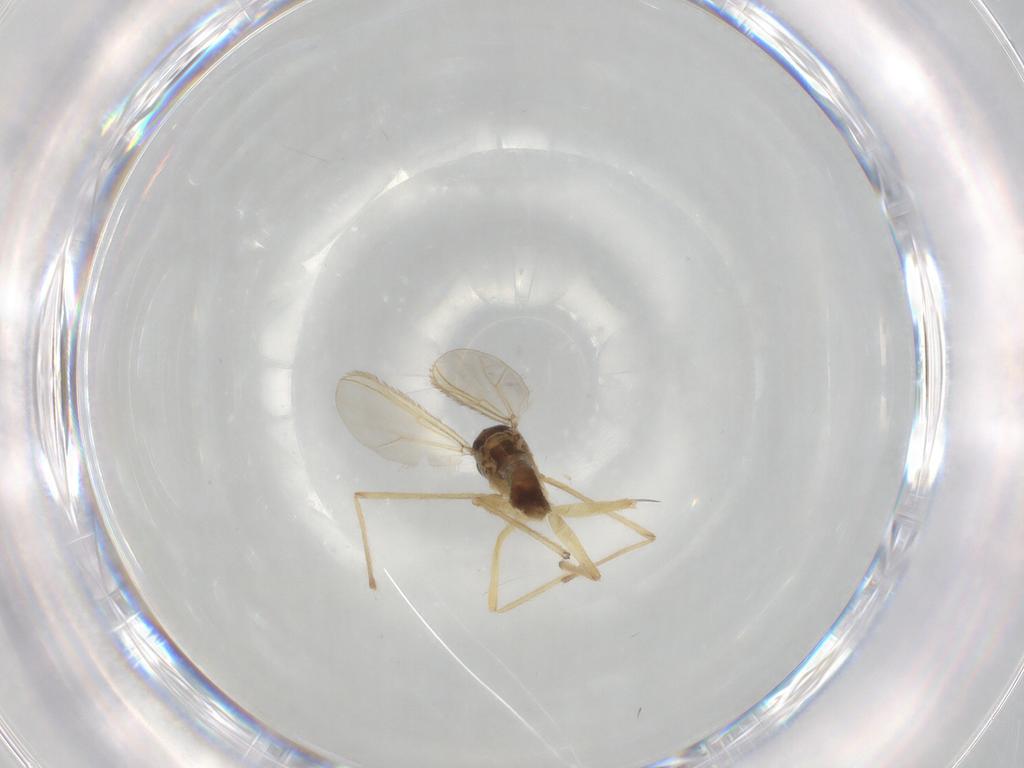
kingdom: Animalia
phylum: Arthropoda
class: Insecta
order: Diptera
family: Chironomidae
